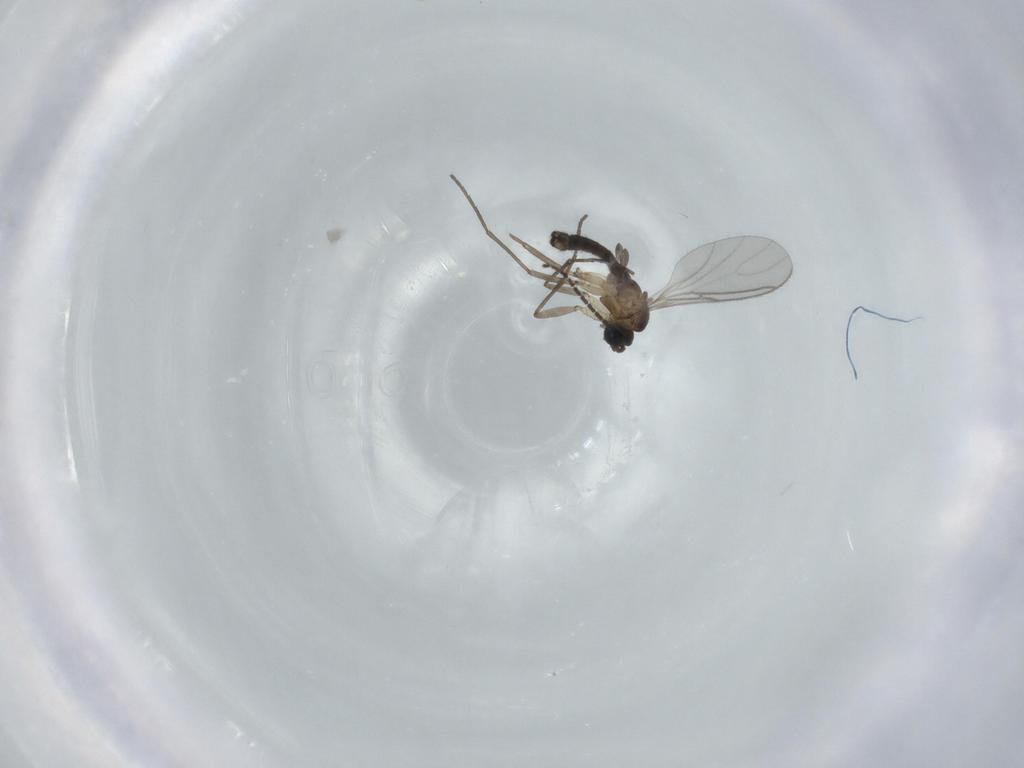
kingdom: Animalia
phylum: Arthropoda
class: Insecta
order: Diptera
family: Sciaridae
